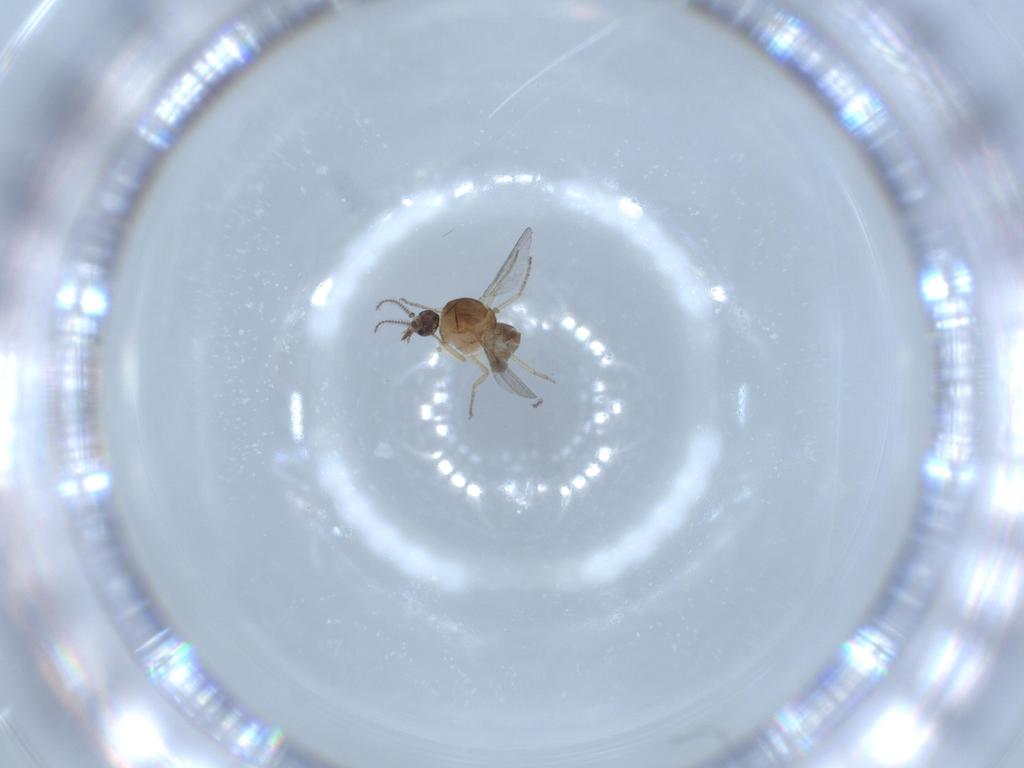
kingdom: Animalia
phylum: Arthropoda
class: Insecta
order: Diptera
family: Ceratopogonidae
